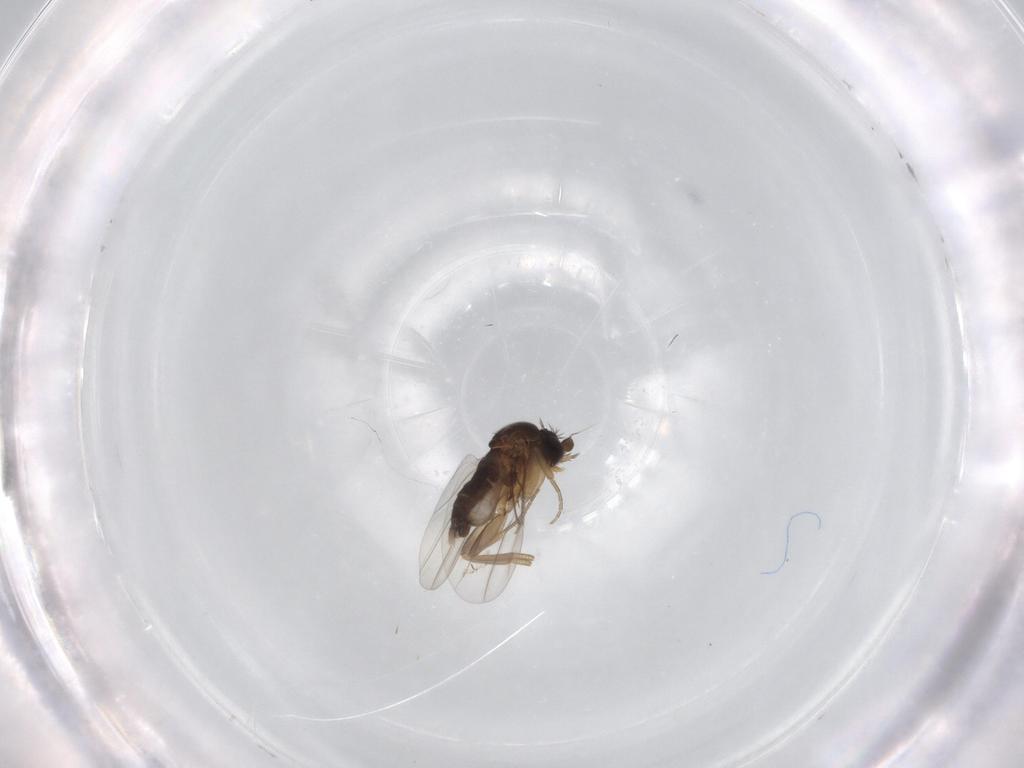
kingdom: Animalia
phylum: Arthropoda
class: Insecta
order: Diptera
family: Phoridae
